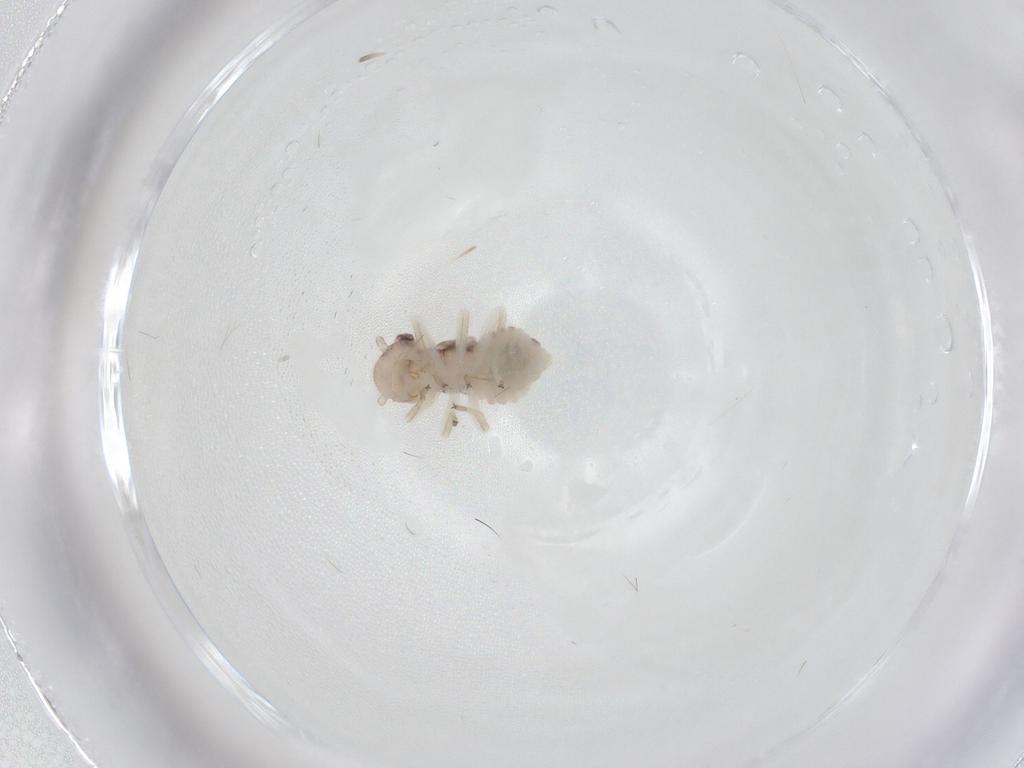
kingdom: Animalia
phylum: Arthropoda
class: Insecta
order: Psocodea
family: Amphipsocidae
